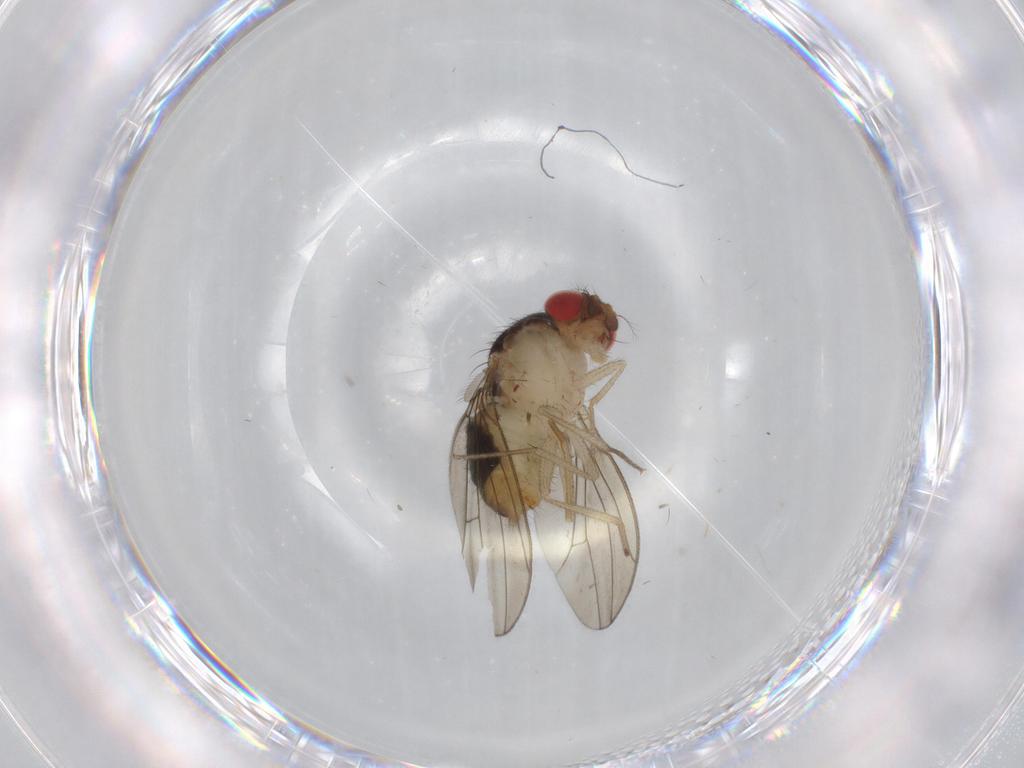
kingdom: Animalia
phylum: Arthropoda
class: Insecta
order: Diptera
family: Drosophilidae
